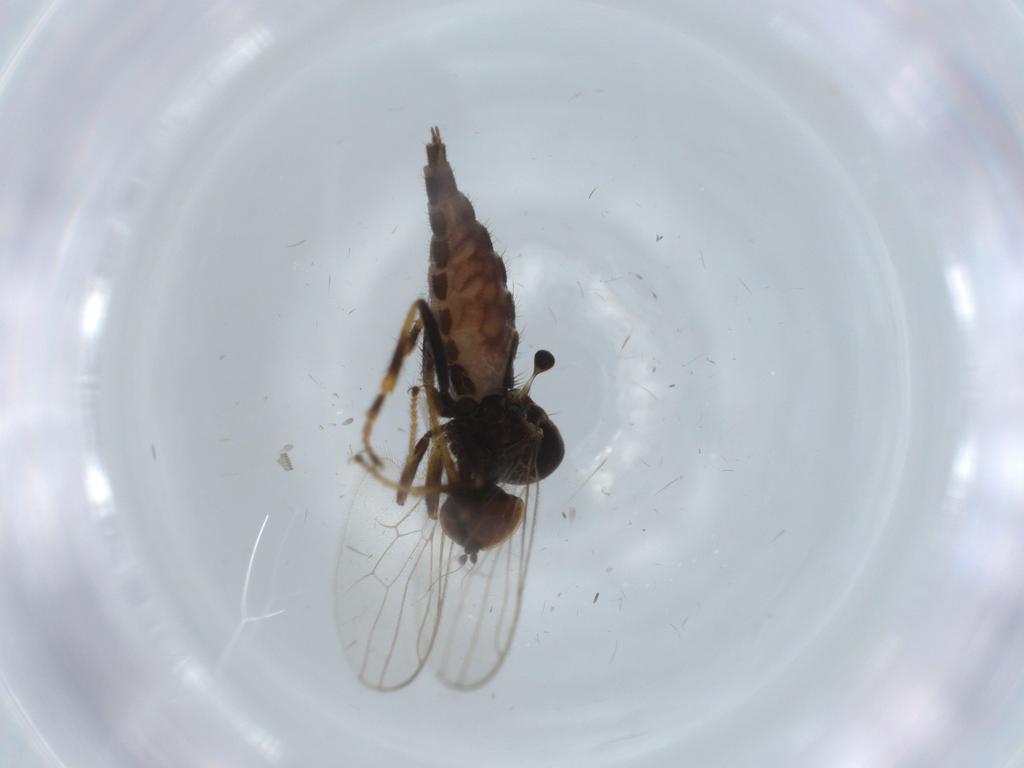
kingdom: Animalia
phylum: Arthropoda
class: Insecta
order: Diptera
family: Hybotidae
